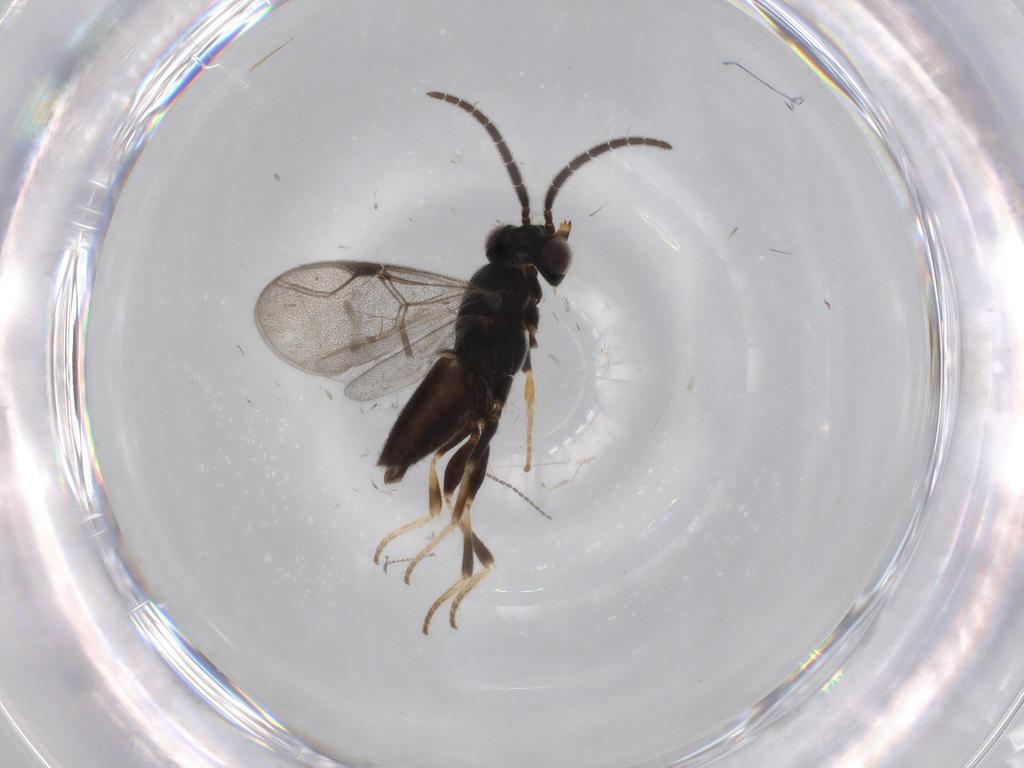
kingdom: Animalia
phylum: Arthropoda
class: Insecta
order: Hymenoptera
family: Dryinidae
